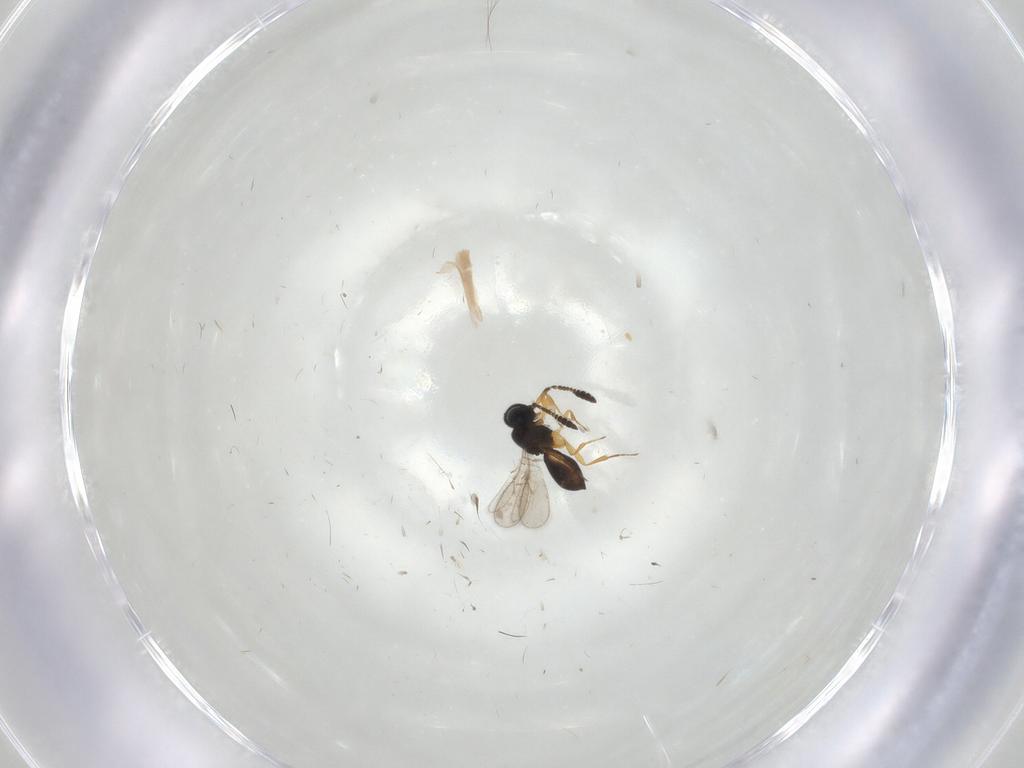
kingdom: Animalia
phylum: Arthropoda
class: Insecta
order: Hymenoptera
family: Scelionidae
